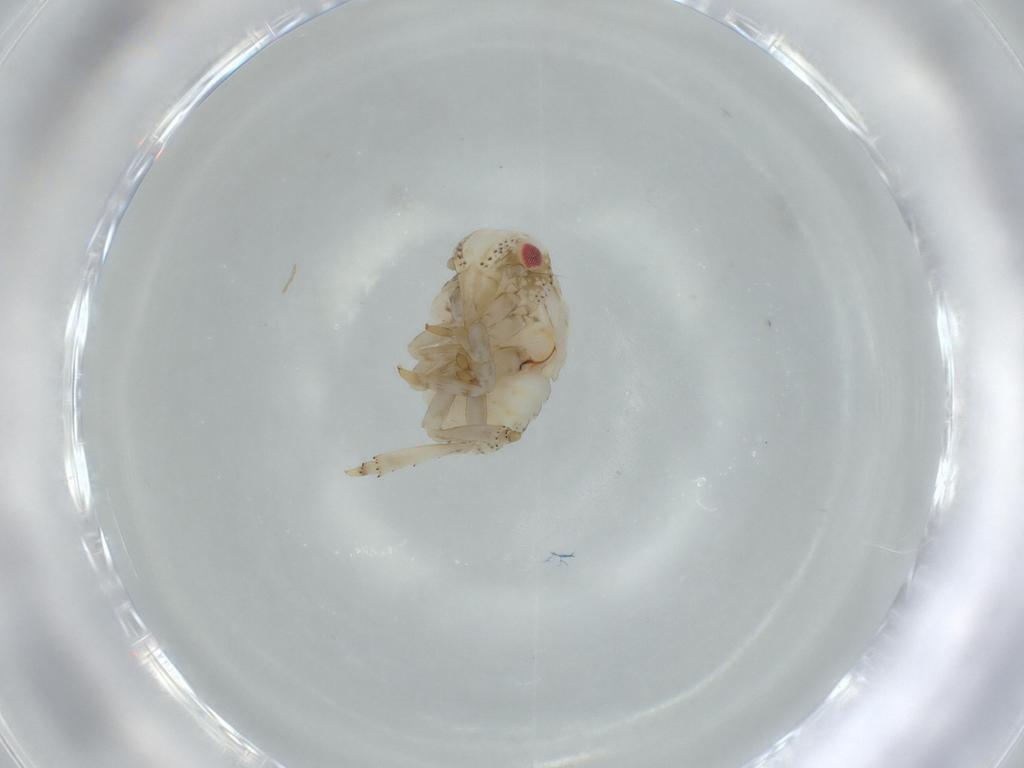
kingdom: Animalia
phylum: Arthropoda
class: Insecta
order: Hemiptera
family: Acanaloniidae
